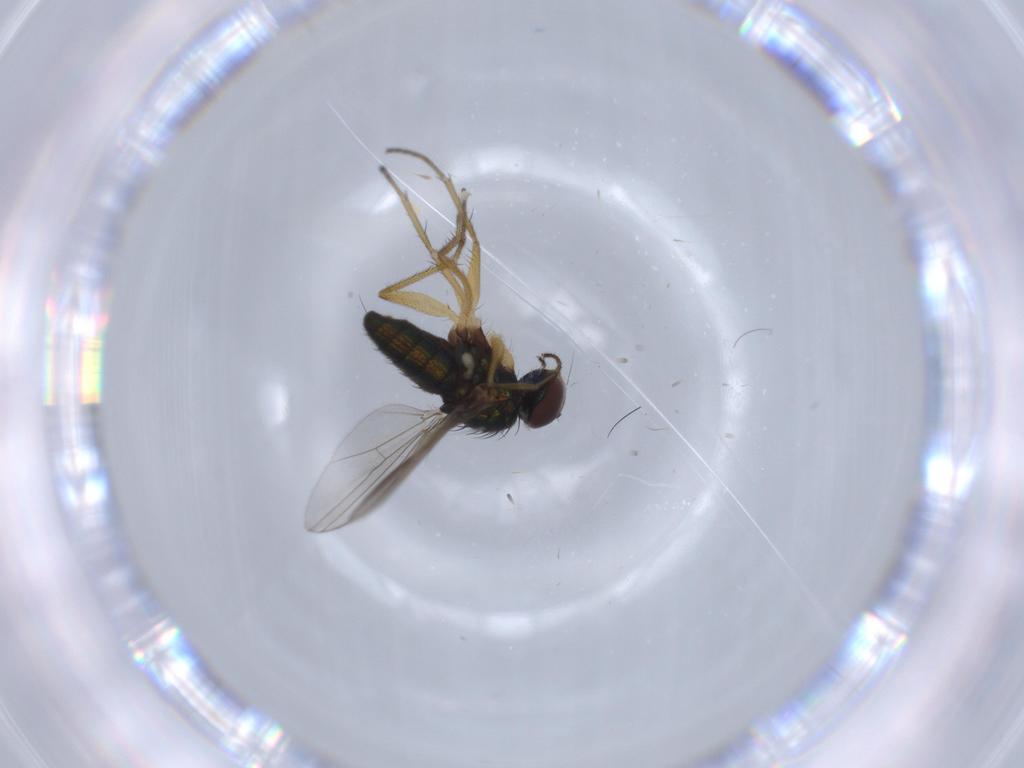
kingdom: Animalia
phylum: Arthropoda
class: Insecta
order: Diptera
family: Dolichopodidae
